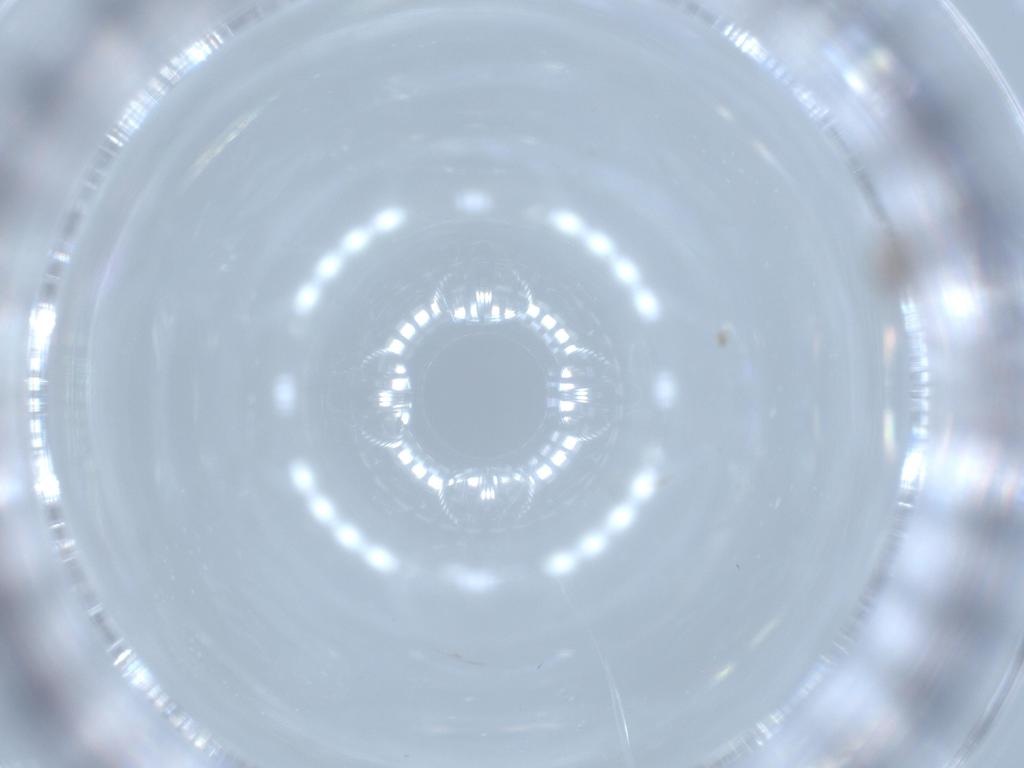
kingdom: Animalia
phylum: Arthropoda
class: Insecta
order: Diptera
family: Cecidomyiidae
